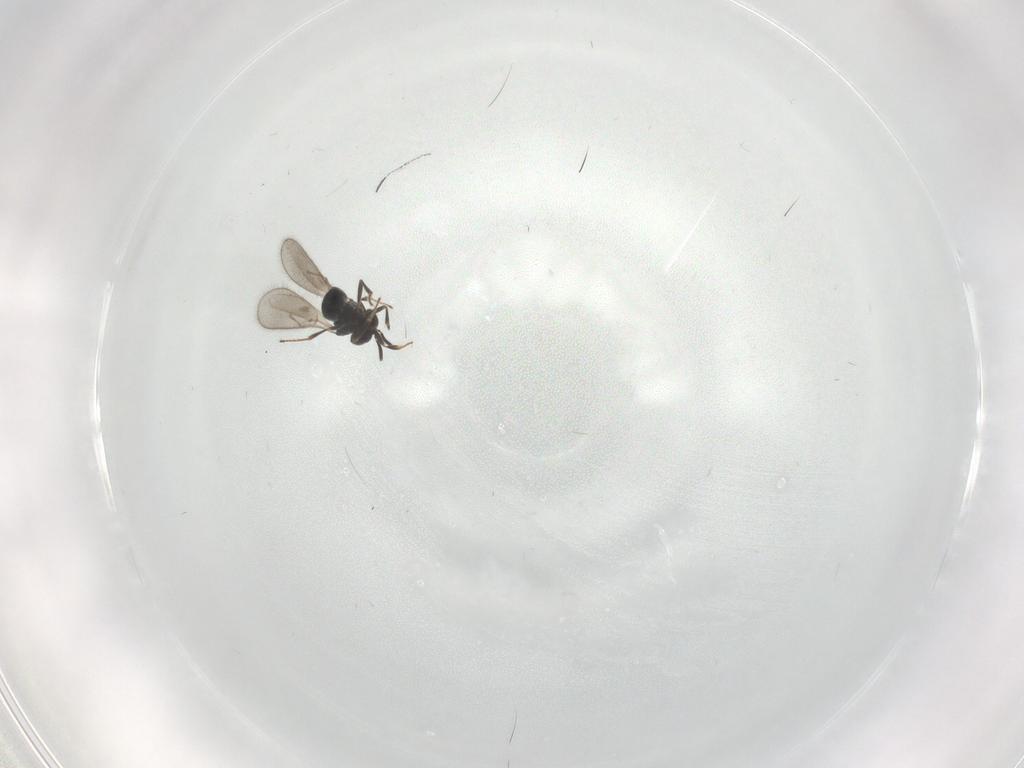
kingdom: Animalia
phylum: Arthropoda
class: Insecta
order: Hymenoptera
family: Scelionidae
